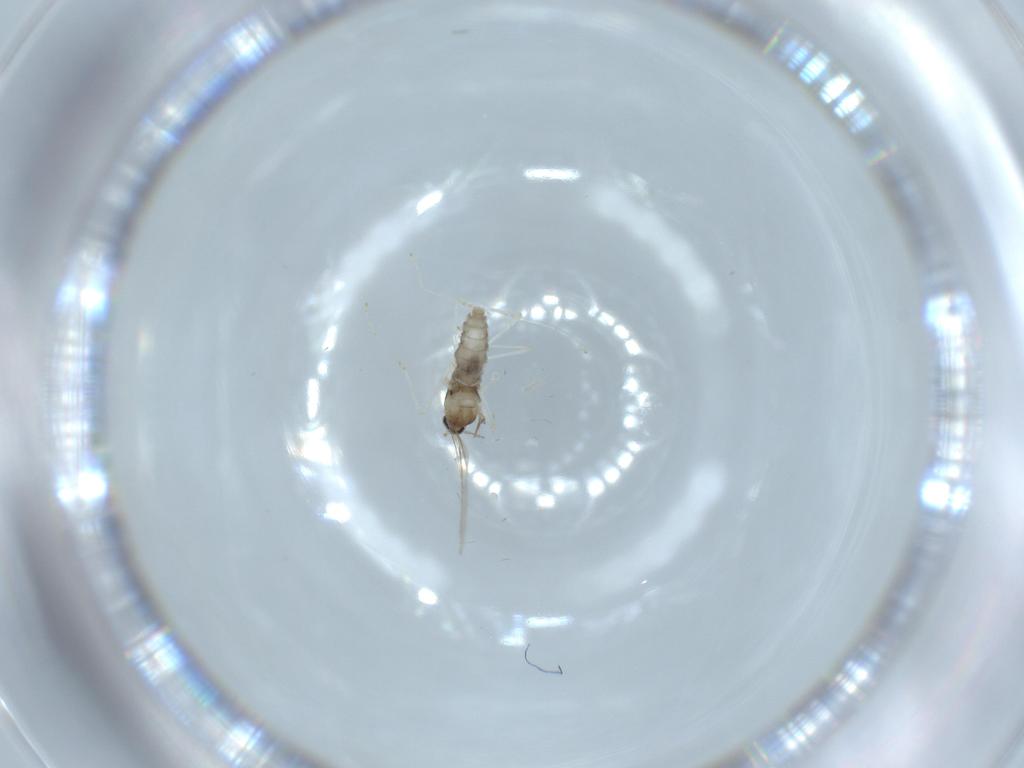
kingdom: Animalia
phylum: Arthropoda
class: Insecta
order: Diptera
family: Cecidomyiidae
